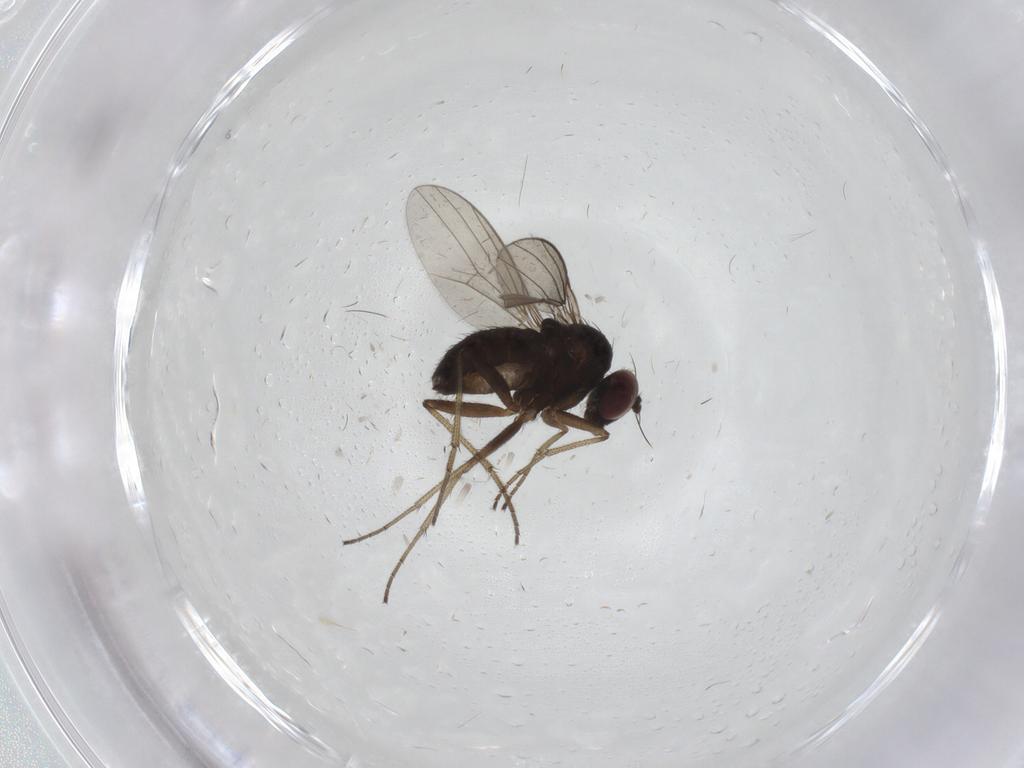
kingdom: Animalia
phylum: Arthropoda
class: Insecta
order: Diptera
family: Dolichopodidae
